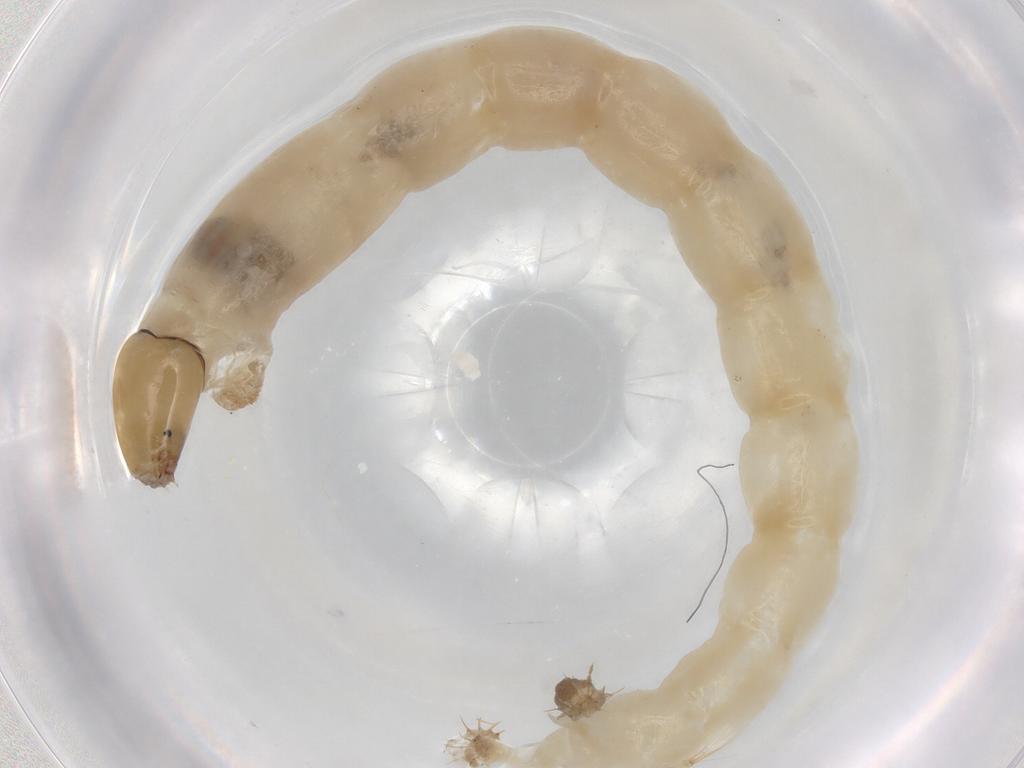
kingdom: Animalia
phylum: Arthropoda
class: Insecta
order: Diptera
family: Chironomidae
